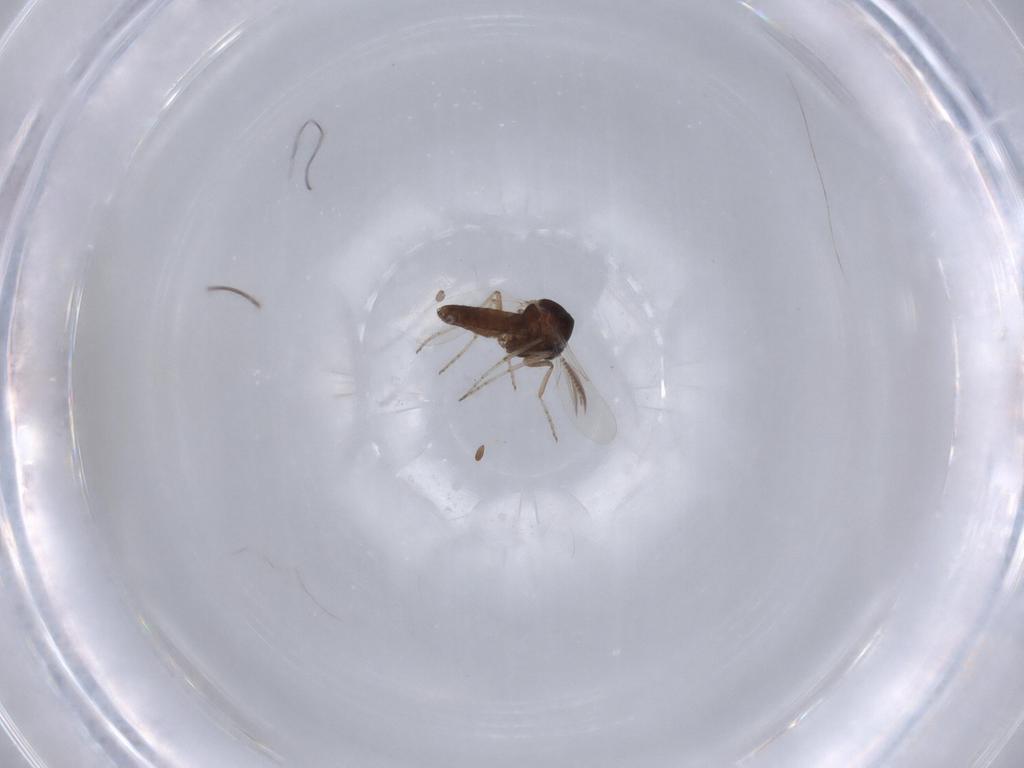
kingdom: Animalia
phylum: Arthropoda
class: Insecta
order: Diptera
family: Ceratopogonidae
